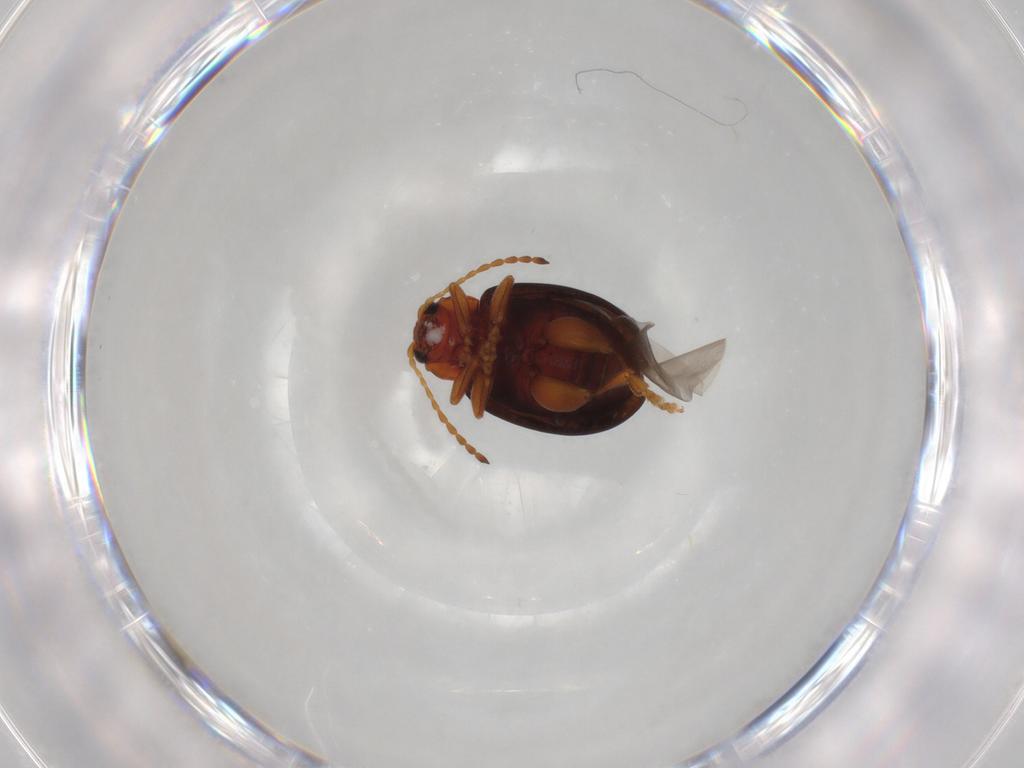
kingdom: Animalia
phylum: Arthropoda
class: Insecta
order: Coleoptera
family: Chrysomelidae
